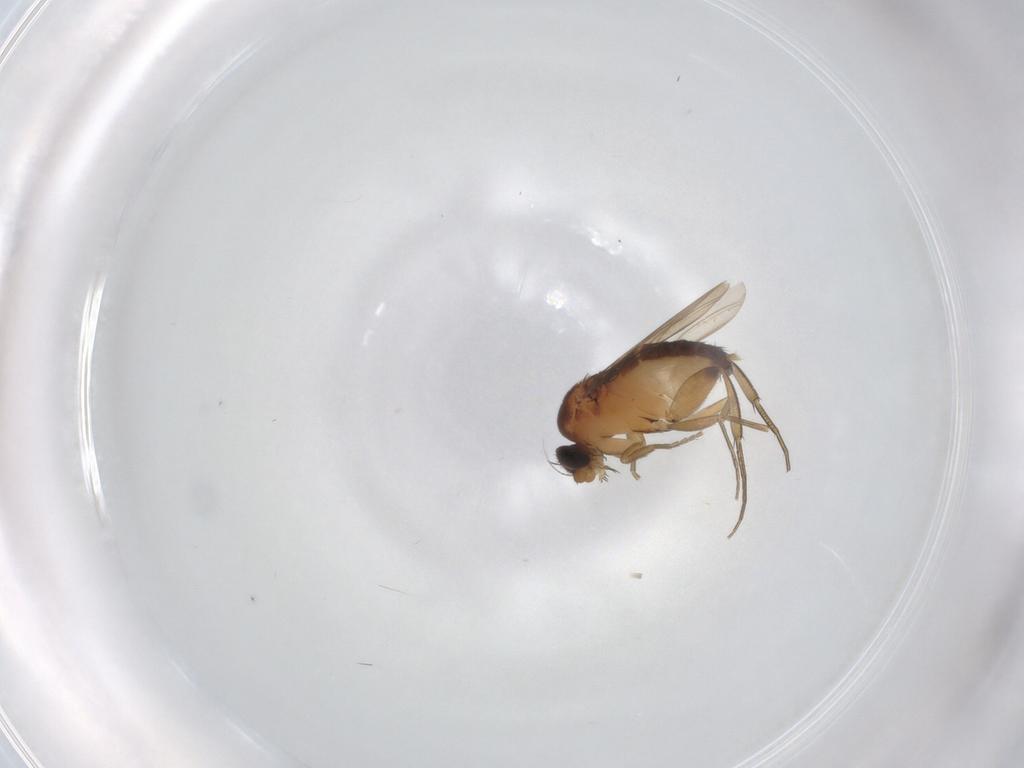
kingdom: Animalia
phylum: Arthropoda
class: Insecta
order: Diptera
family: Phoridae
